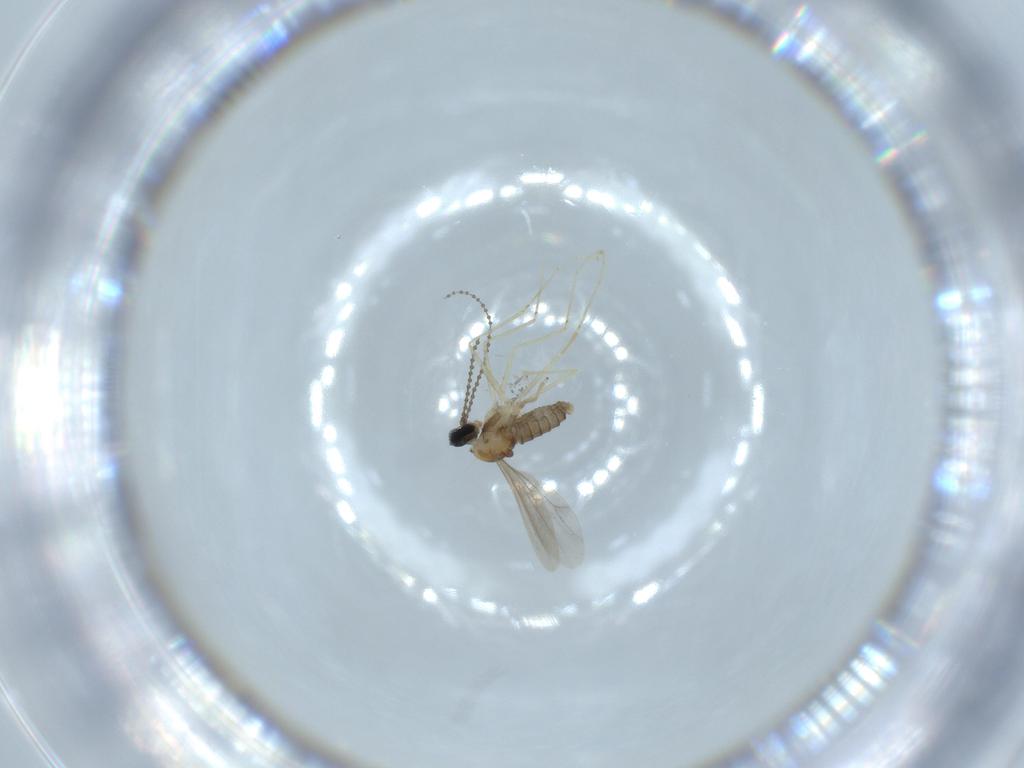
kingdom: Animalia
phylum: Arthropoda
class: Insecta
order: Diptera
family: Cecidomyiidae
